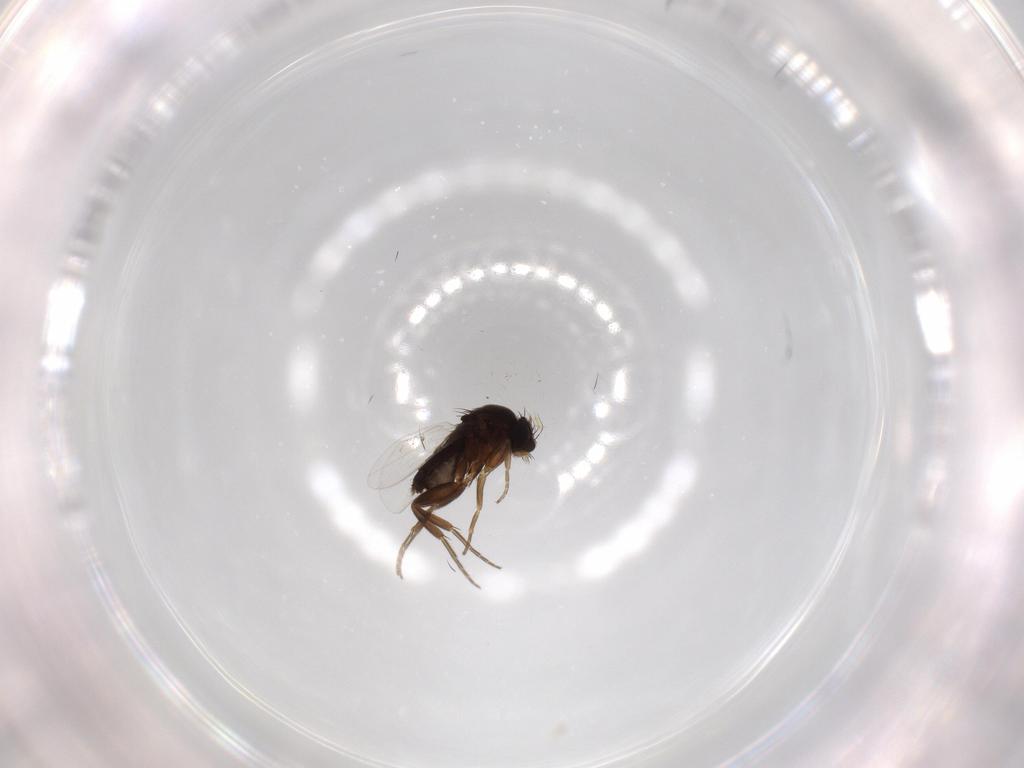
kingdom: Animalia
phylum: Arthropoda
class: Insecta
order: Diptera
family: Phoridae
